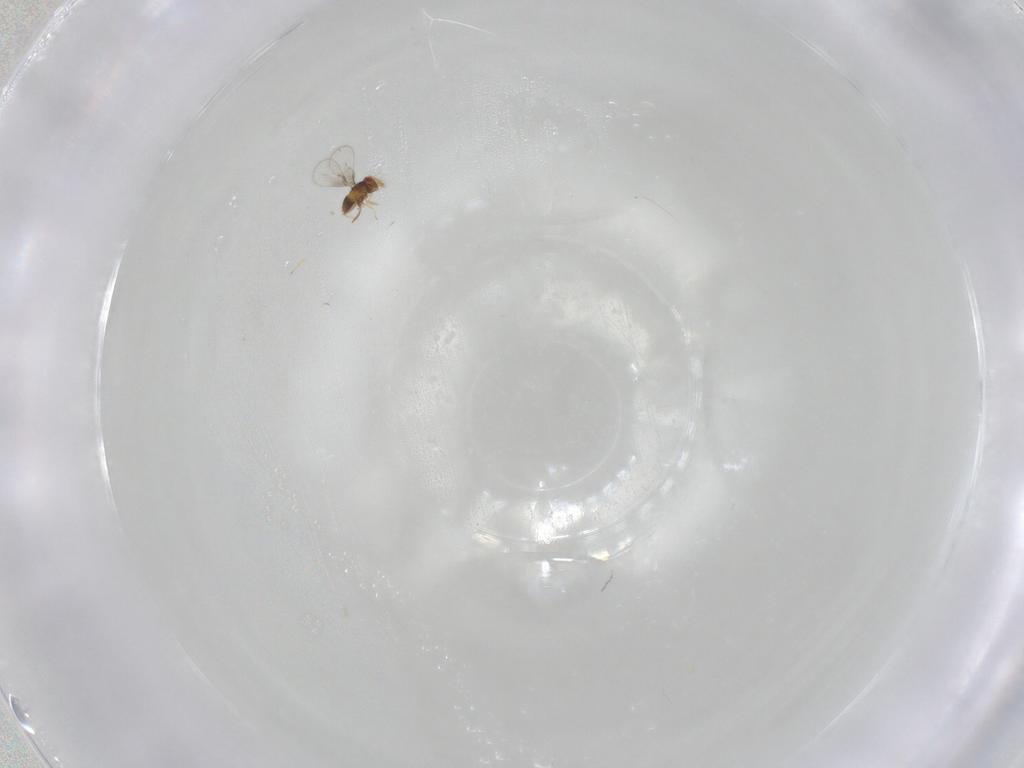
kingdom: Animalia
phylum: Arthropoda
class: Insecta
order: Hymenoptera
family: Trichogrammatidae
